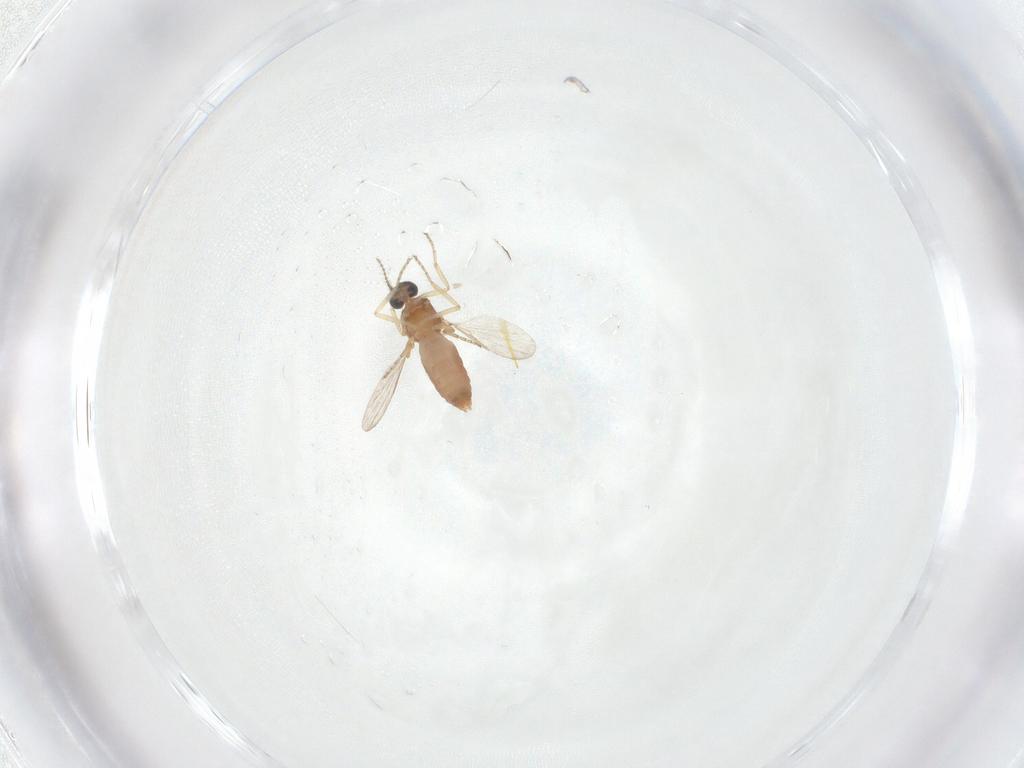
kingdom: Animalia
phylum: Arthropoda
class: Insecta
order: Diptera
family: Ceratopogonidae
